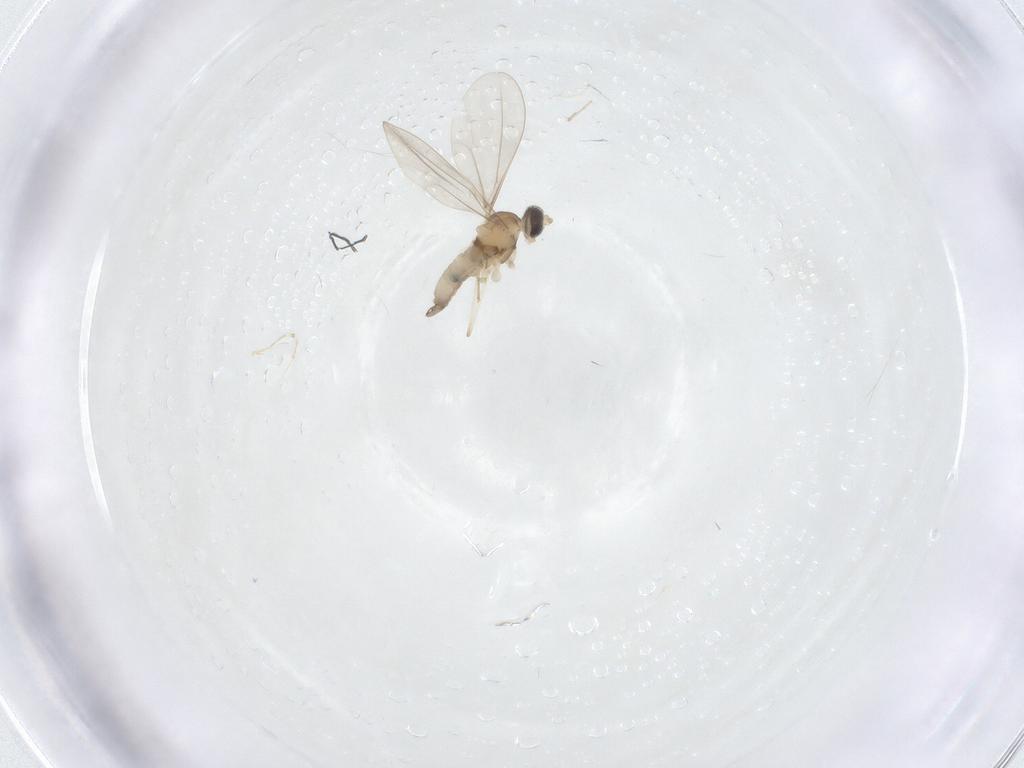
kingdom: Animalia
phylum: Arthropoda
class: Insecta
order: Diptera
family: Cecidomyiidae
